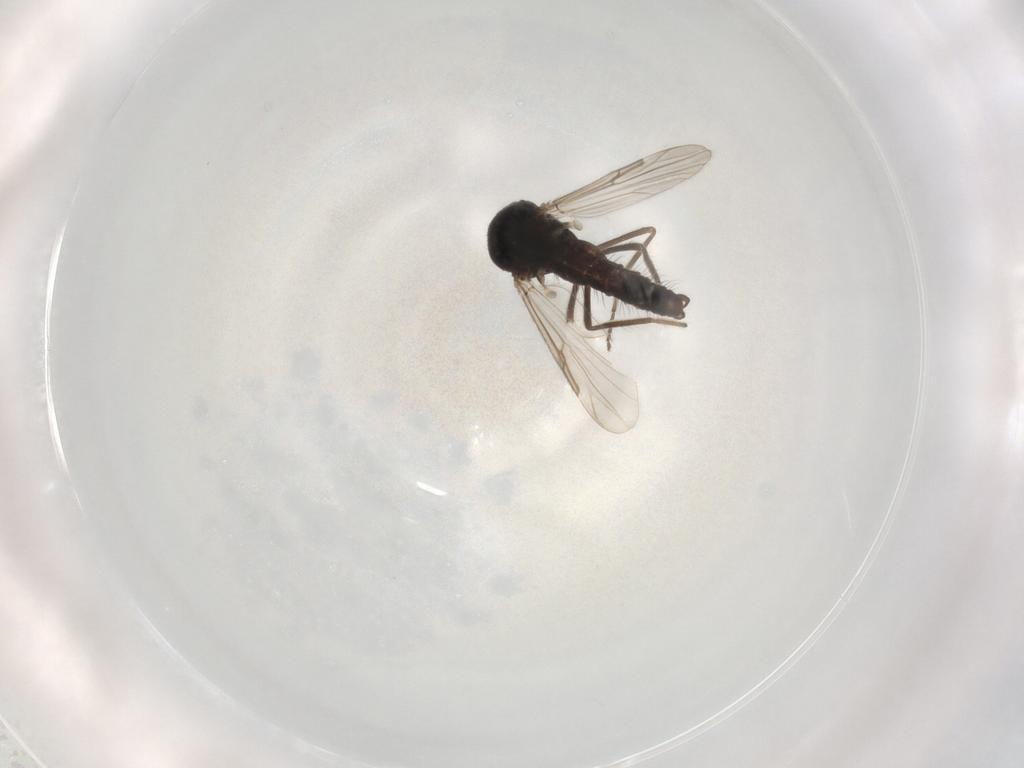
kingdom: Animalia
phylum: Arthropoda
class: Insecta
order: Diptera
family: Ceratopogonidae
